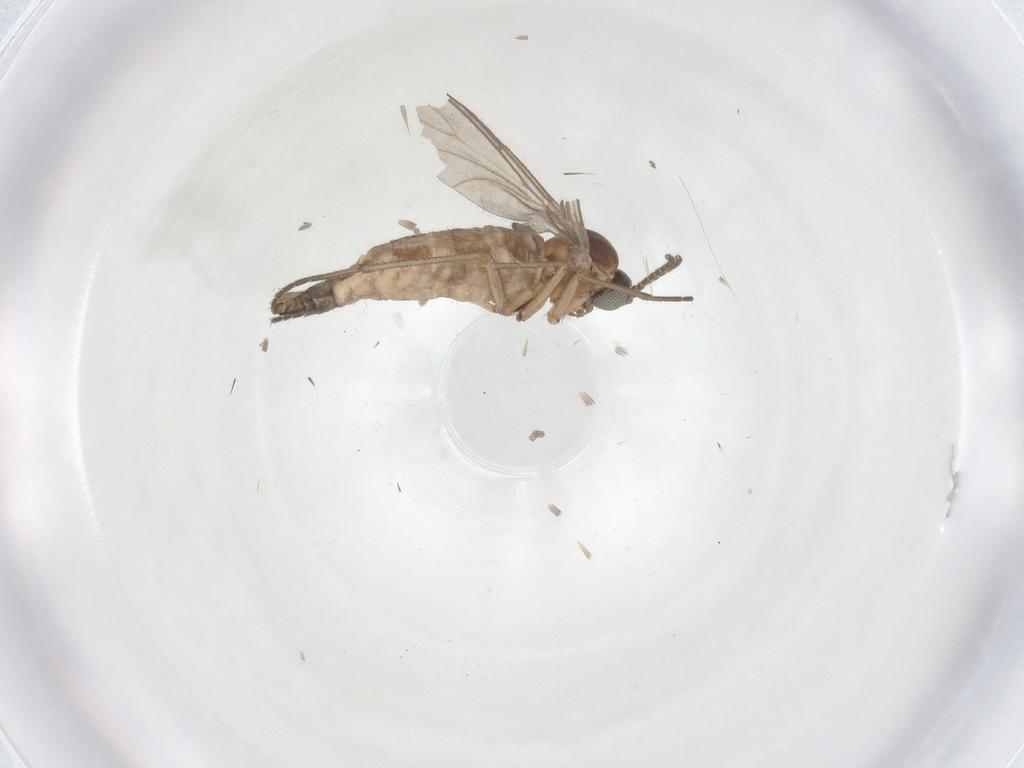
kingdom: Animalia
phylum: Arthropoda
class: Insecta
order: Diptera
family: Sciaridae
